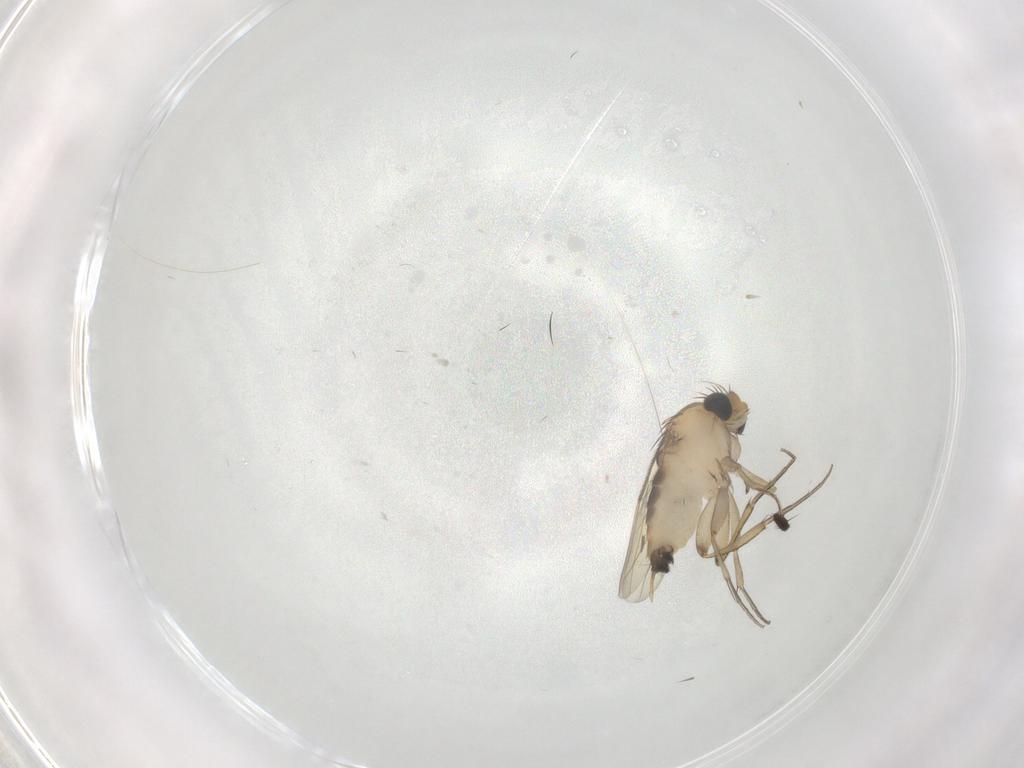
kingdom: Animalia
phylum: Arthropoda
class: Insecta
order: Diptera
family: Phoridae
